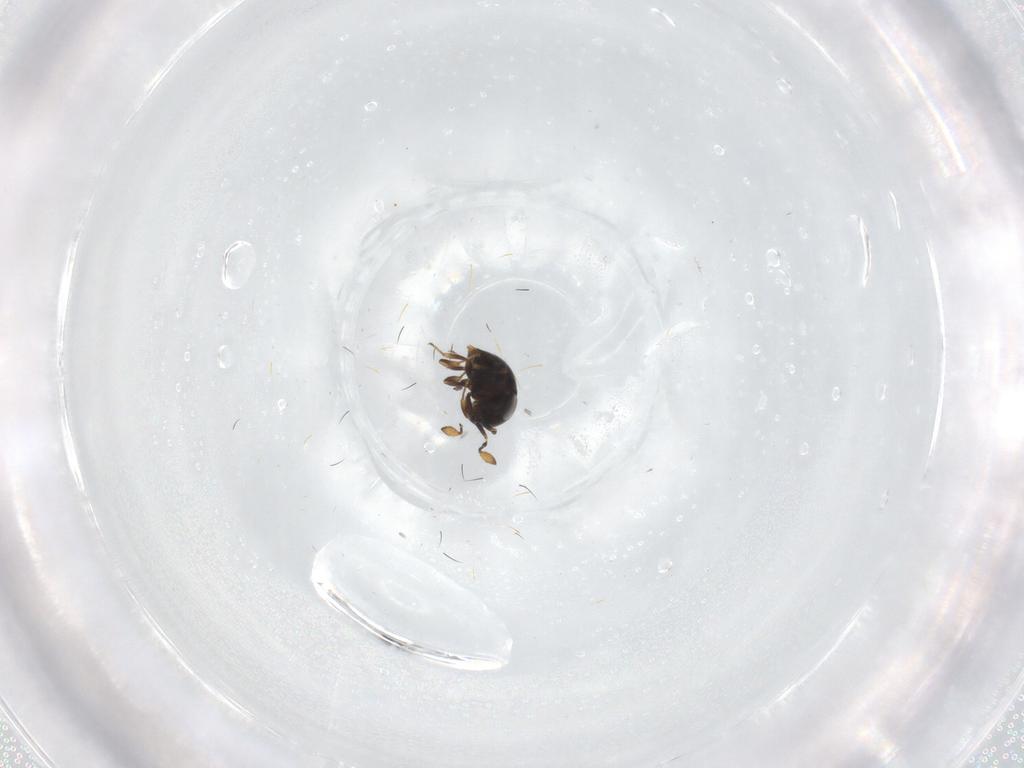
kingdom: Animalia
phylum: Arthropoda
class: Insecta
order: Hymenoptera
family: Scelionidae
